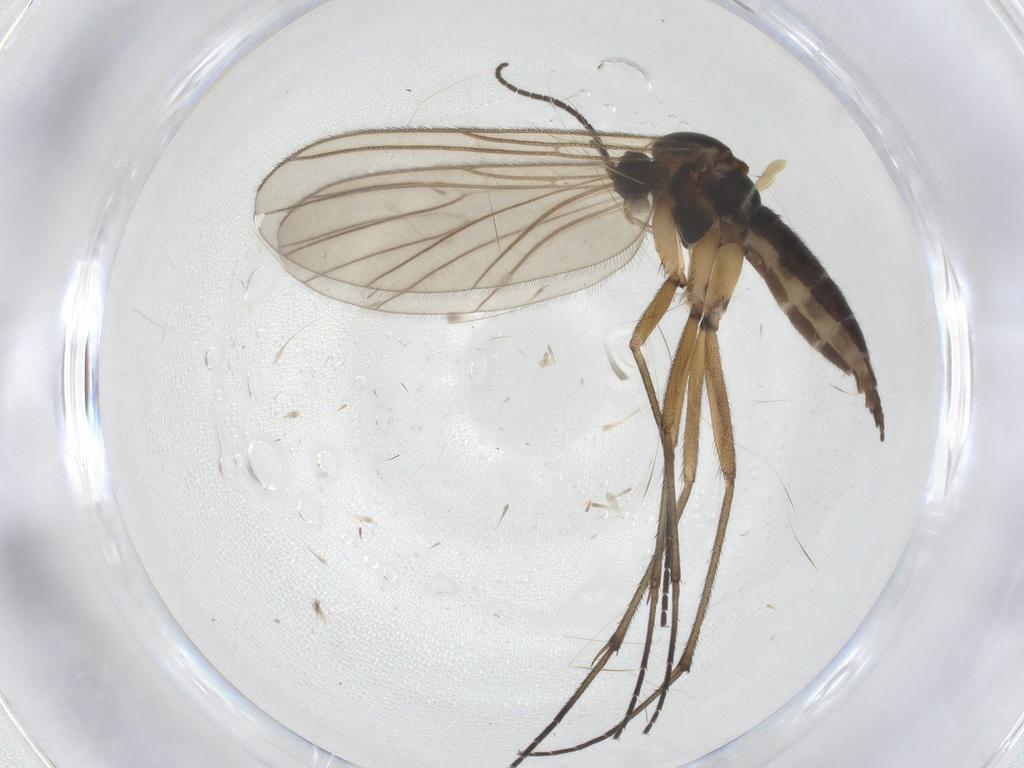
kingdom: Animalia
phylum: Arthropoda
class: Insecta
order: Diptera
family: Sciaridae
